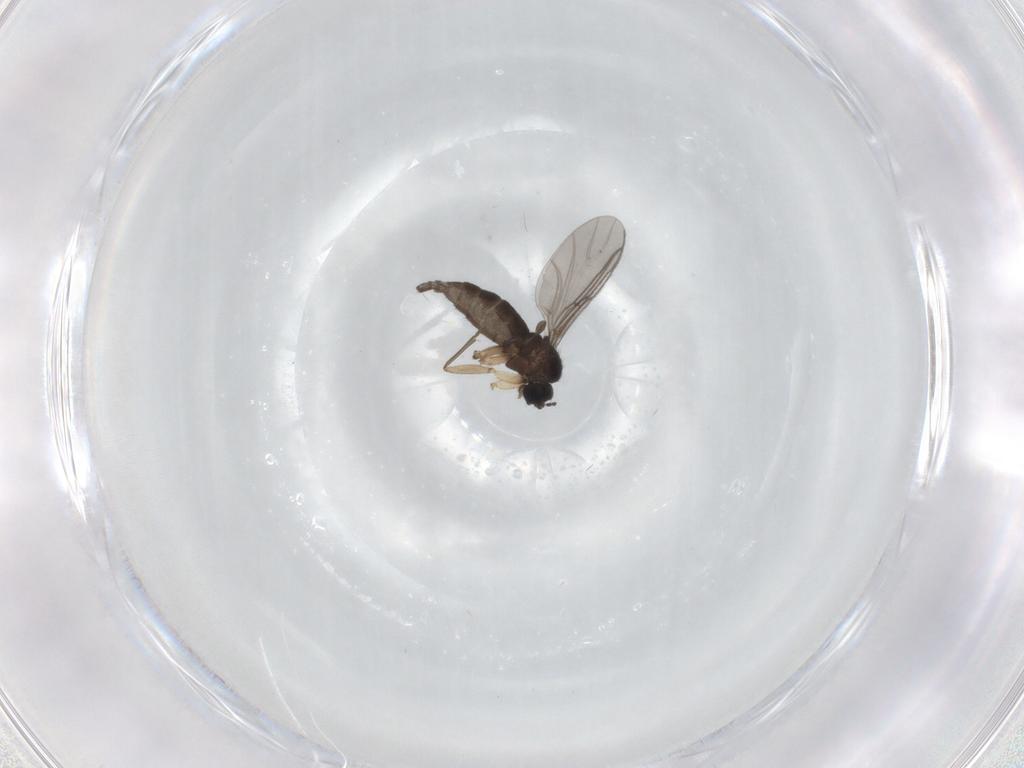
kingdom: Animalia
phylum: Arthropoda
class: Insecta
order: Diptera
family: Sciaridae
